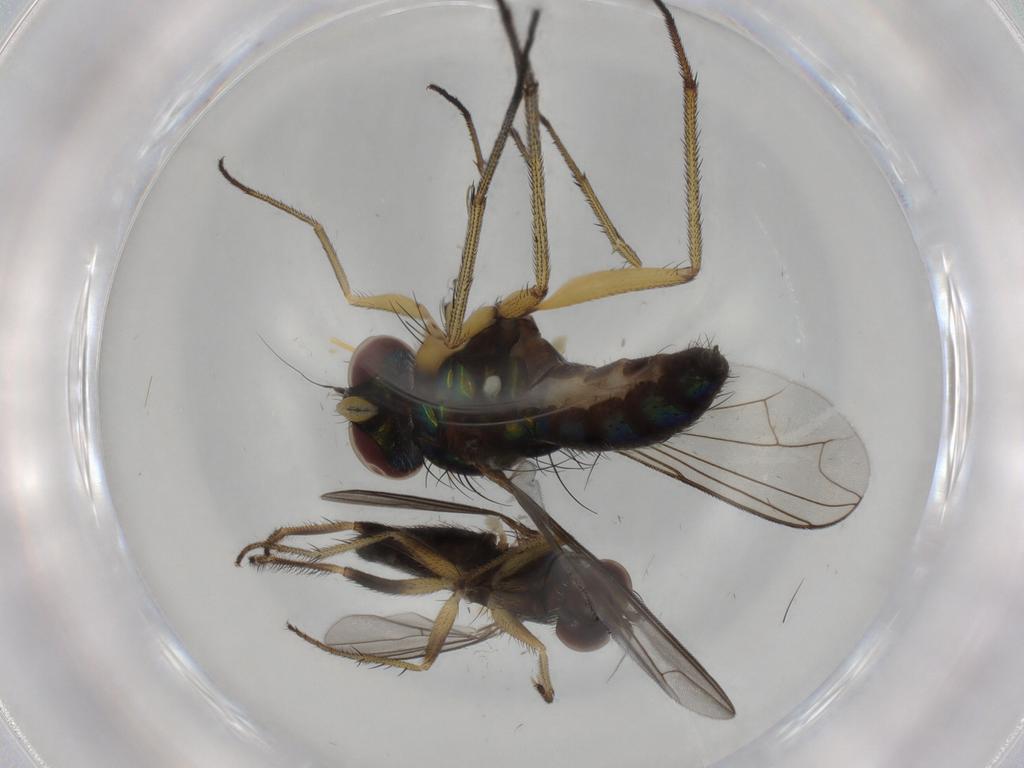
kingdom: Animalia
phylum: Arthropoda
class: Insecta
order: Diptera
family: Dolichopodidae
